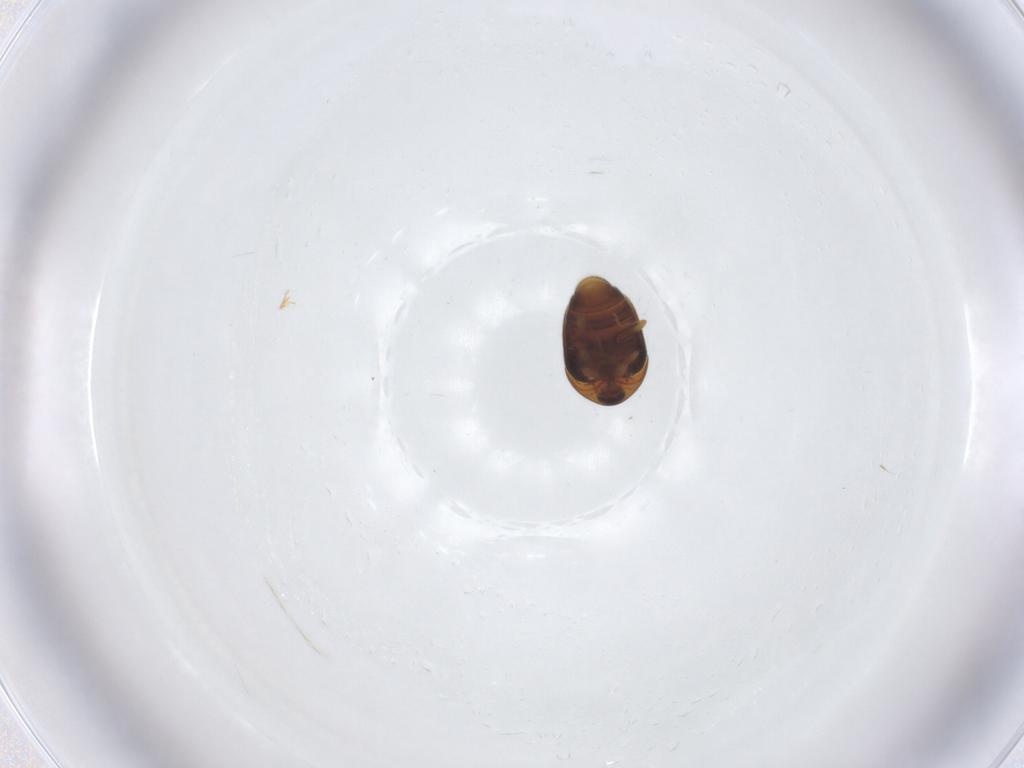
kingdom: Animalia
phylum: Arthropoda
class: Insecta
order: Coleoptera
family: Corylophidae
